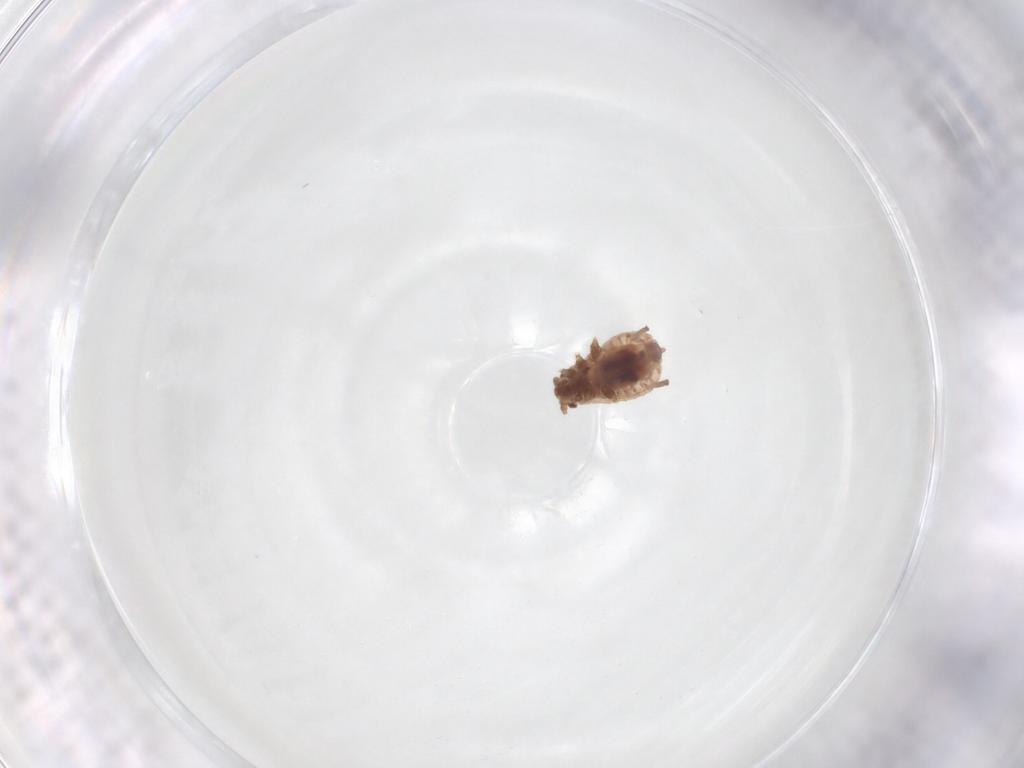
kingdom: Animalia
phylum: Arthropoda
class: Insecta
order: Hemiptera
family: Aphididae
